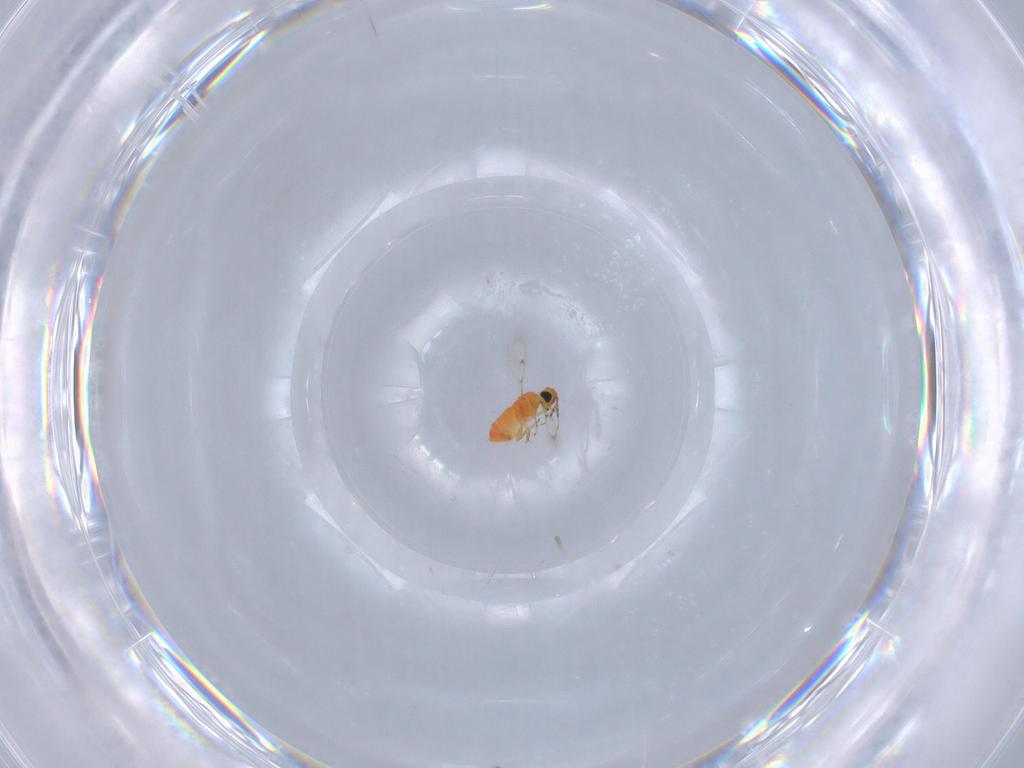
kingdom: Animalia
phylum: Arthropoda
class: Insecta
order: Hymenoptera
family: Trichogrammatidae
